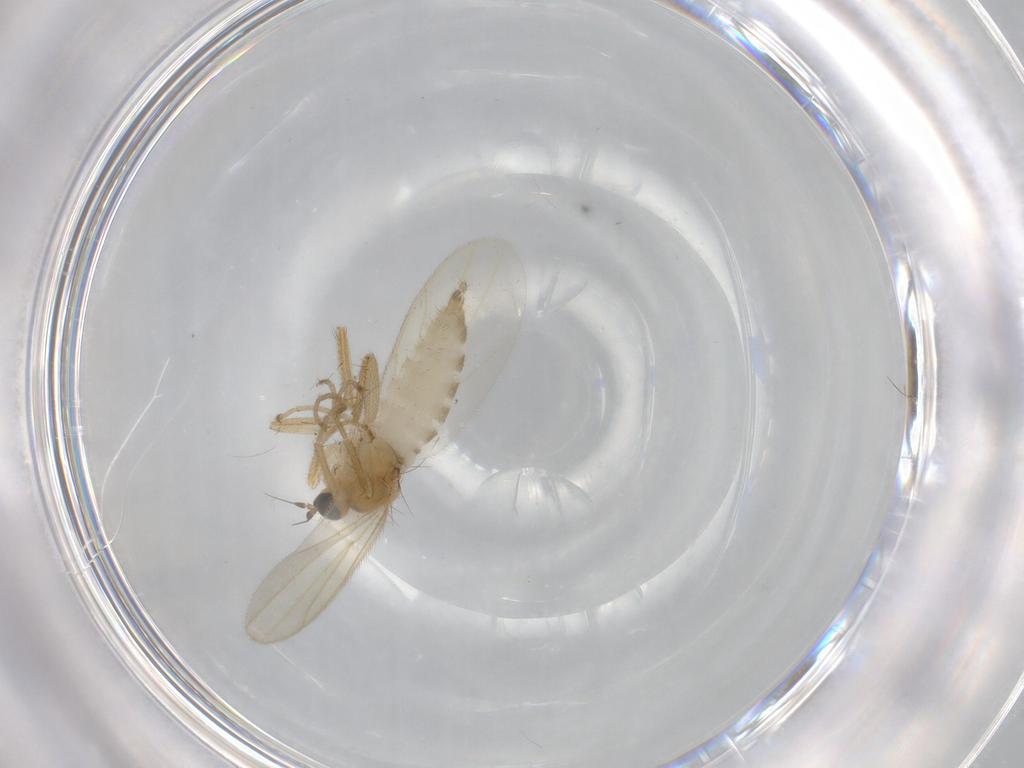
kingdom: Animalia
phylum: Arthropoda
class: Insecta
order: Diptera
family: Hybotidae
